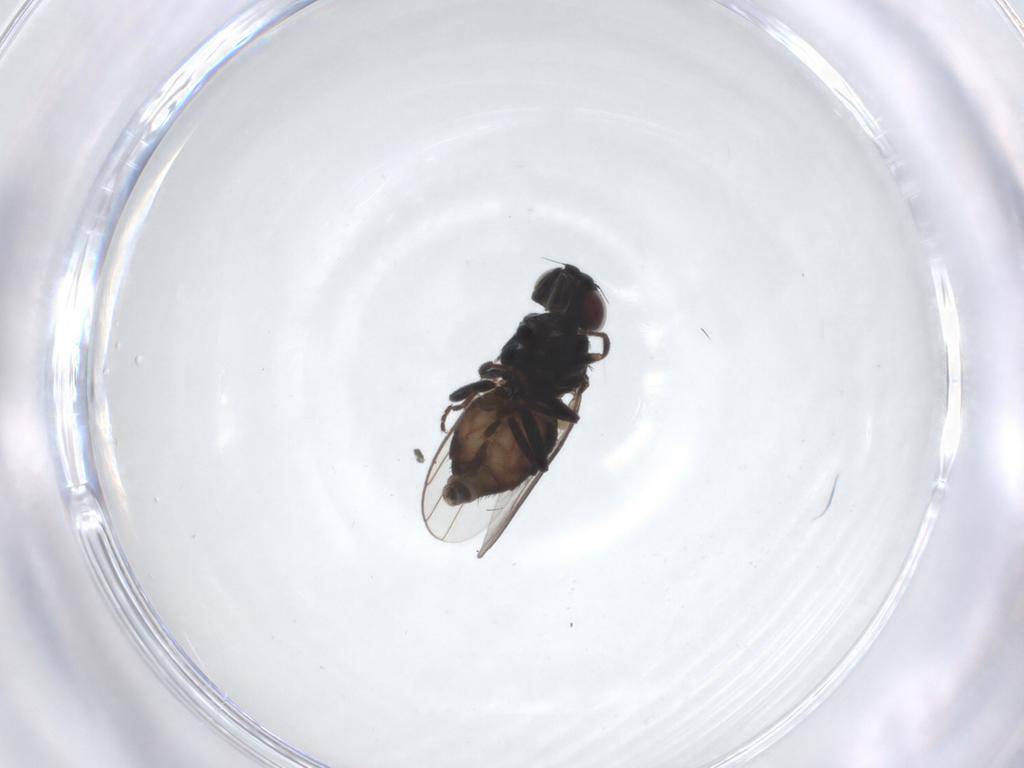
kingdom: Animalia
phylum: Arthropoda
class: Insecta
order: Diptera
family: Chloropidae
